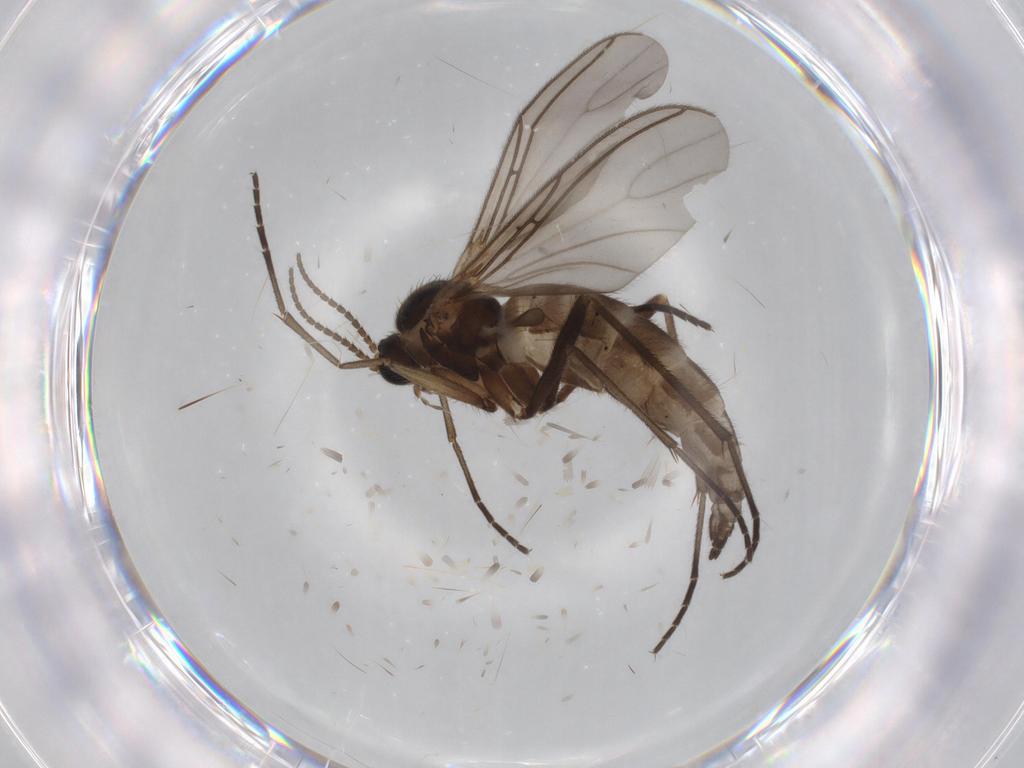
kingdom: Animalia
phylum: Arthropoda
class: Insecta
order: Diptera
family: Sciaridae
